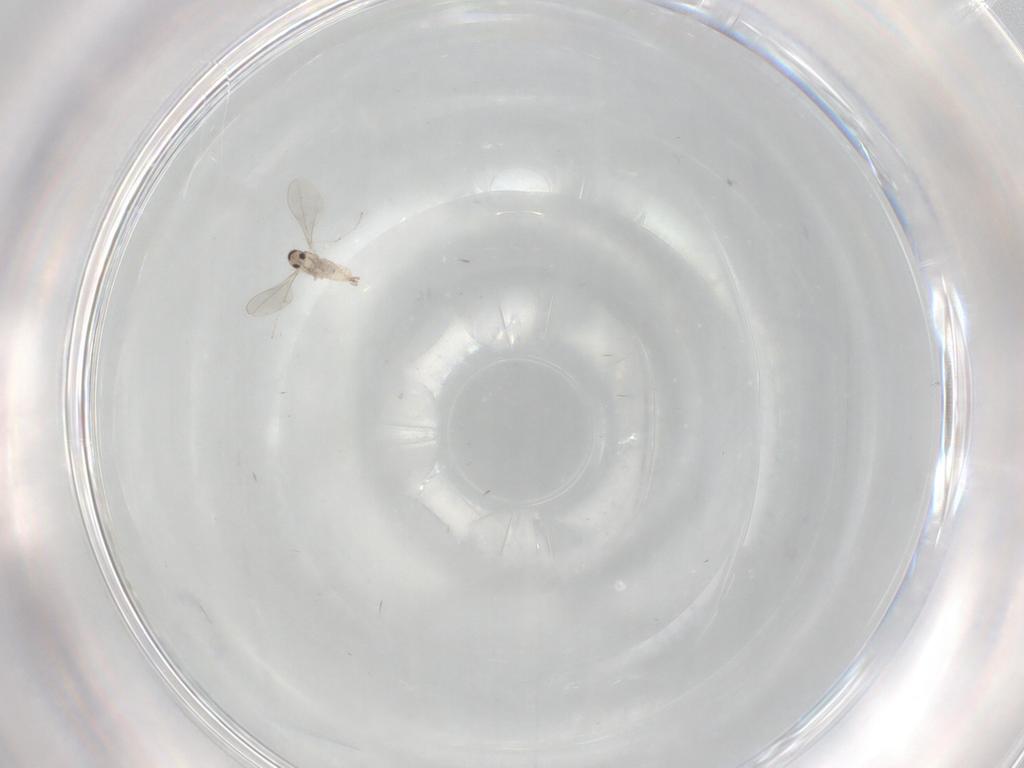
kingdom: Animalia
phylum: Arthropoda
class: Insecta
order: Diptera
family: Cecidomyiidae
